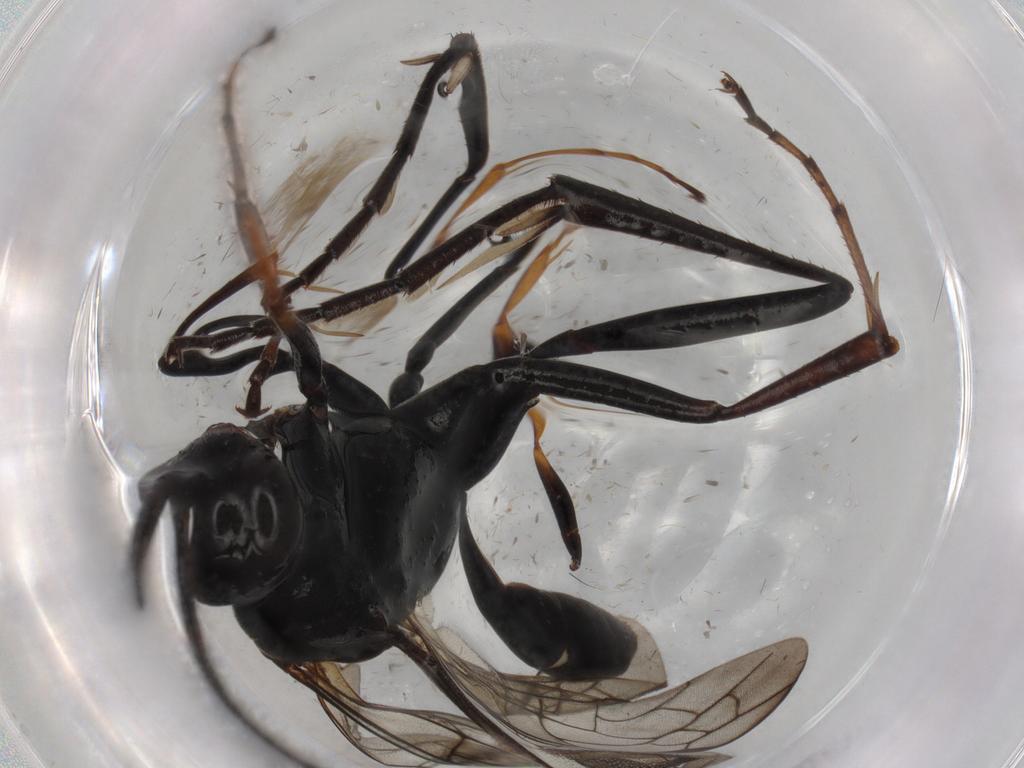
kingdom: Animalia
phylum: Arthropoda
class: Insecta
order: Hymenoptera
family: Pompilidae
